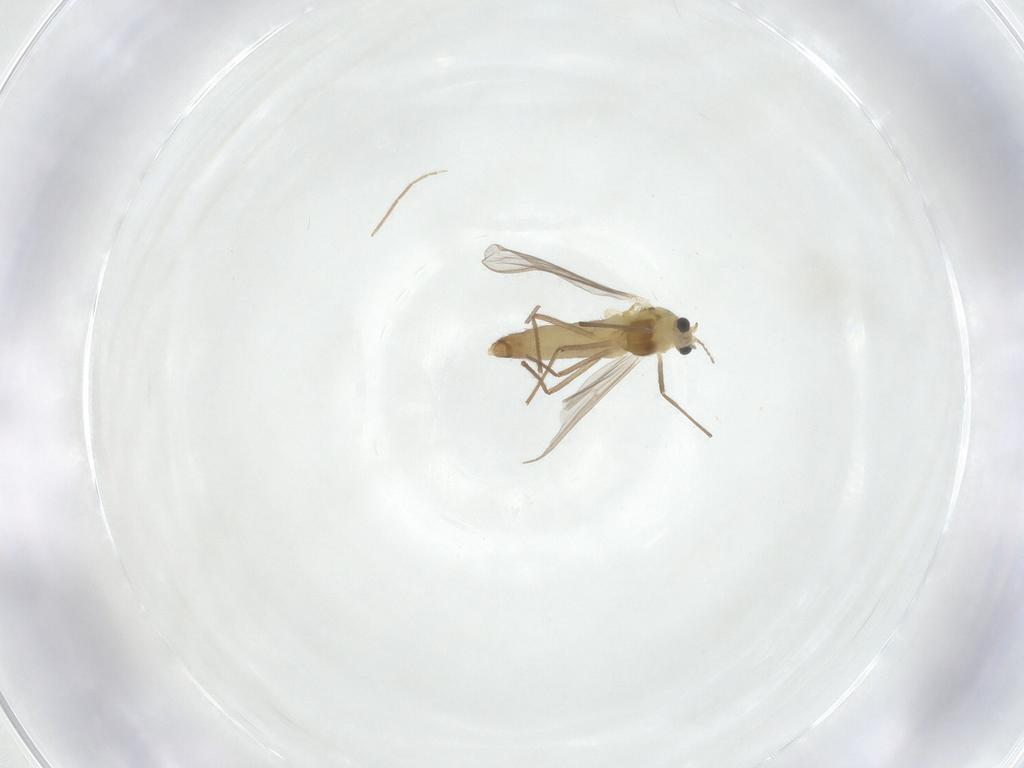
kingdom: Animalia
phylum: Arthropoda
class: Insecta
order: Diptera
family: Chironomidae
